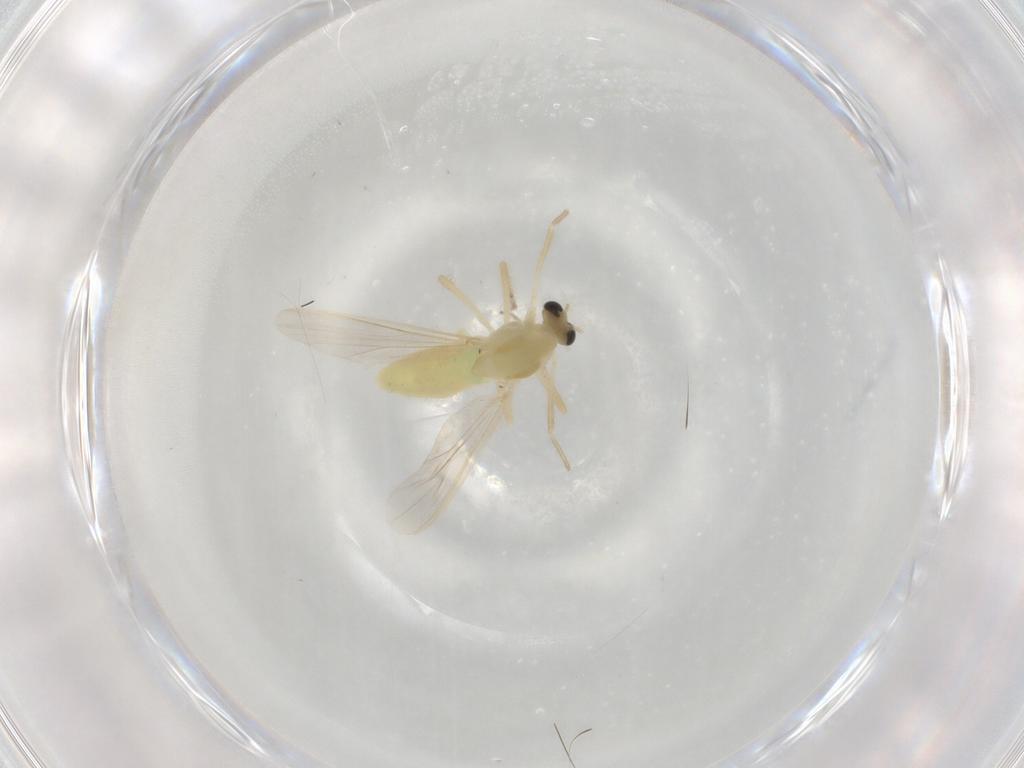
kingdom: Animalia
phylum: Arthropoda
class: Insecta
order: Diptera
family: Chironomidae
